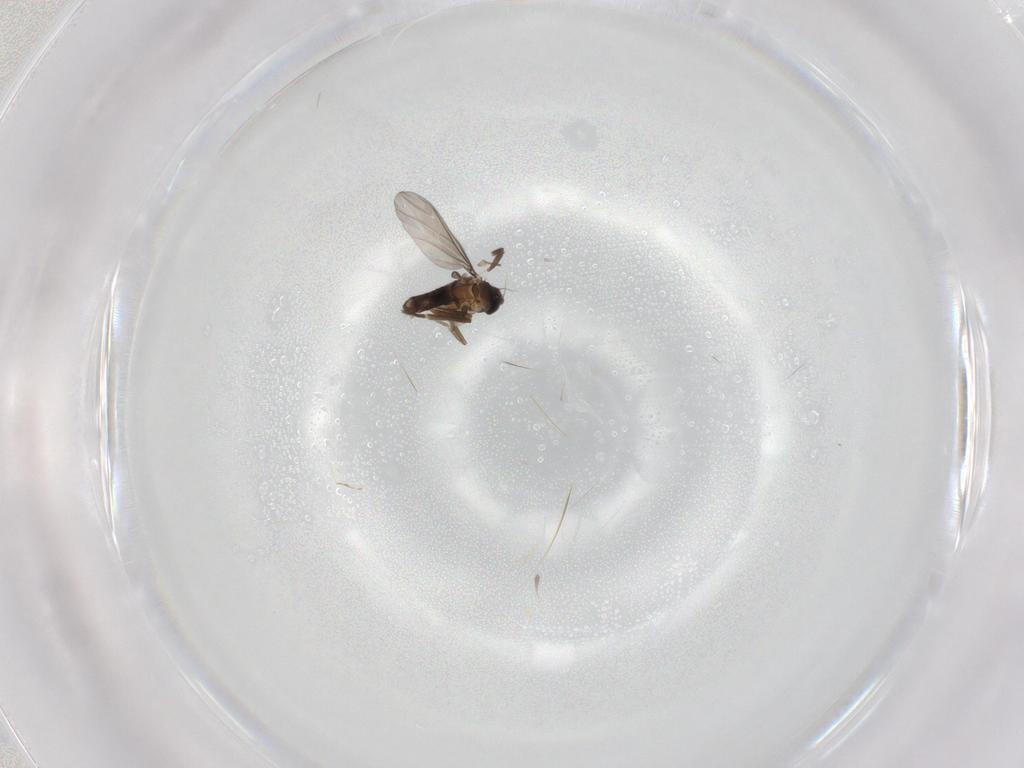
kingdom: Animalia
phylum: Arthropoda
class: Insecta
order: Diptera
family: Phoridae
